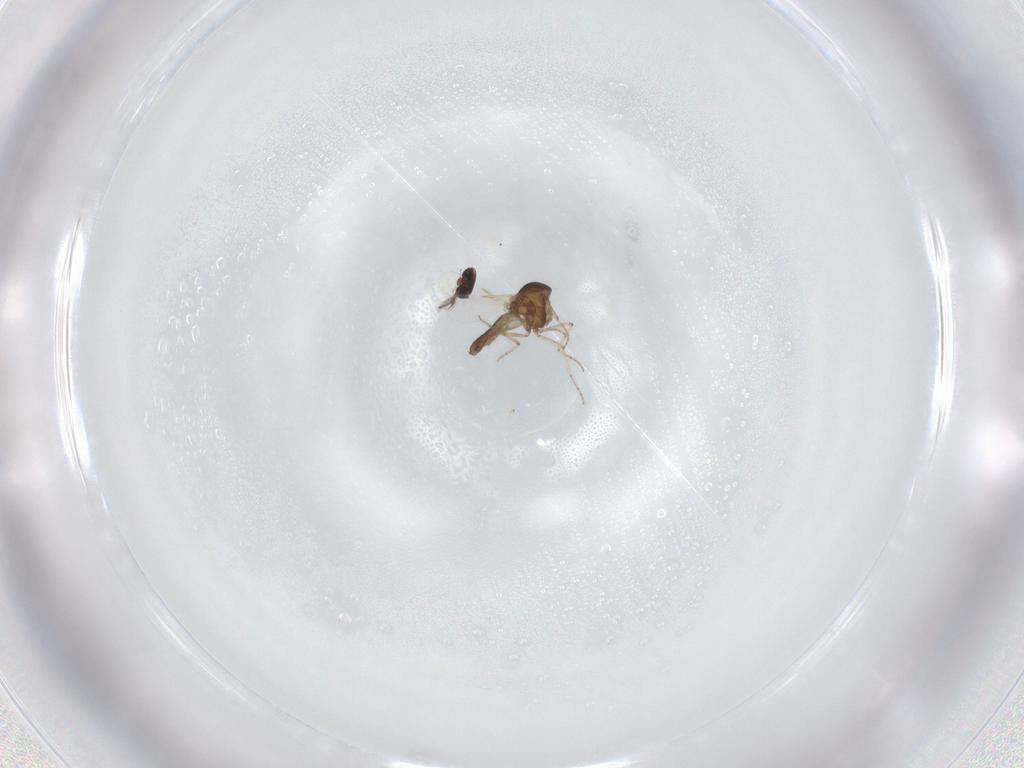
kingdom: Animalia
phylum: Arthropoda
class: Insecta
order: Diptera
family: Ceratopogonidae
